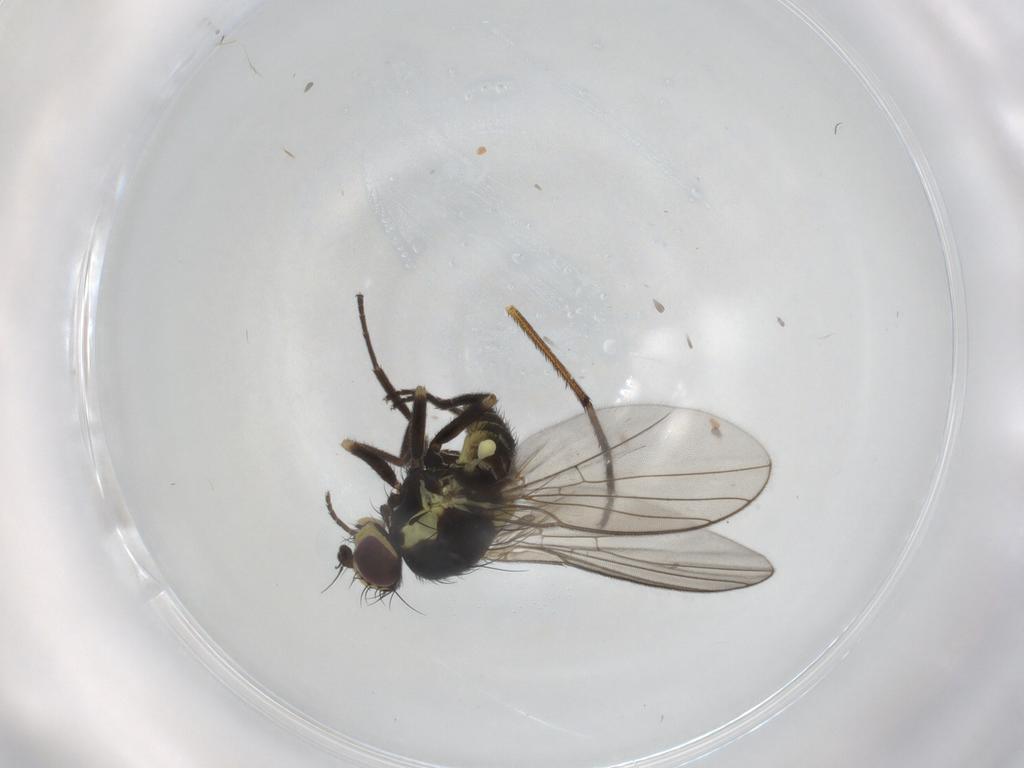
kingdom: Animalia
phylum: Arthropoda
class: Insecta
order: Diptera
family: Agromyzidae
